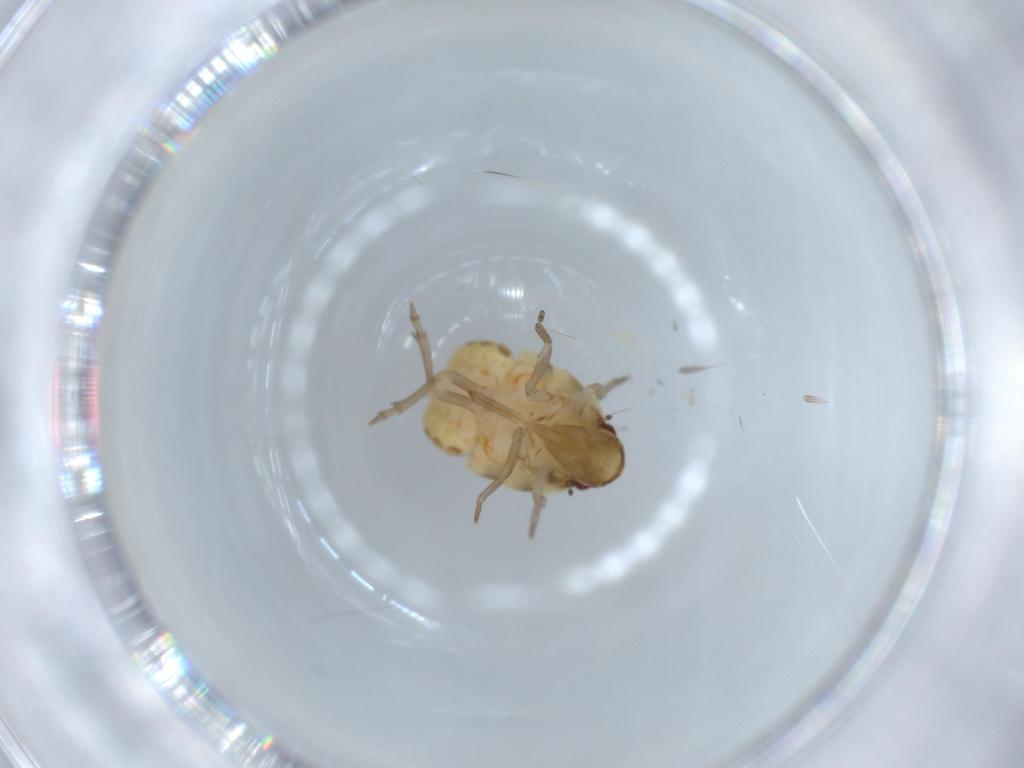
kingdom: Animalia
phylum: Arthropoda
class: Insecta
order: Hemiptera
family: Flatidae
